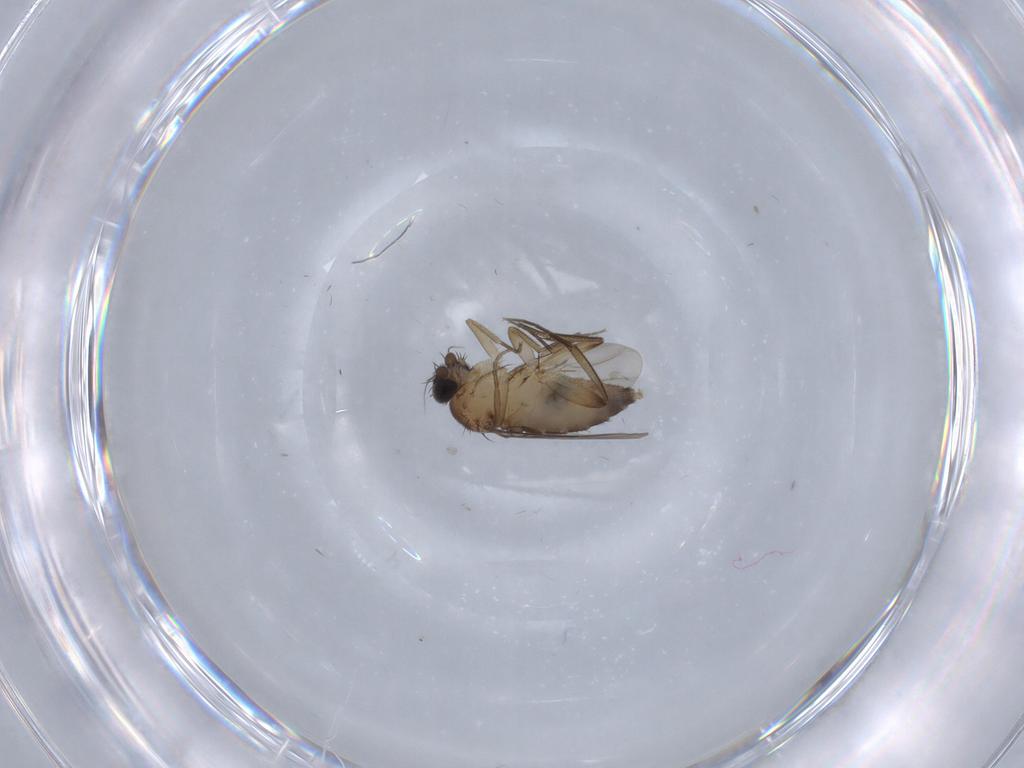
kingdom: Animalia
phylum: Arthropoda
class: Insecta
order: Diptera
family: Phoridae
